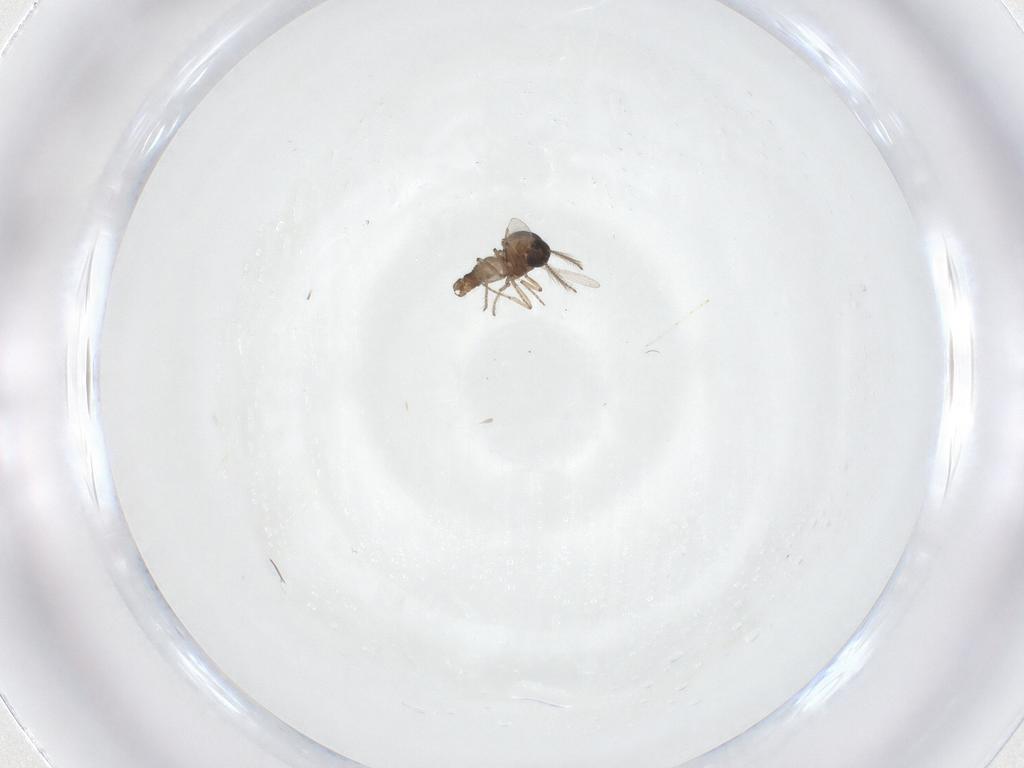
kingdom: Animalia
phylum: Arthropoda
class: Insecta
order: Diptera
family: Ceratopogonidae
